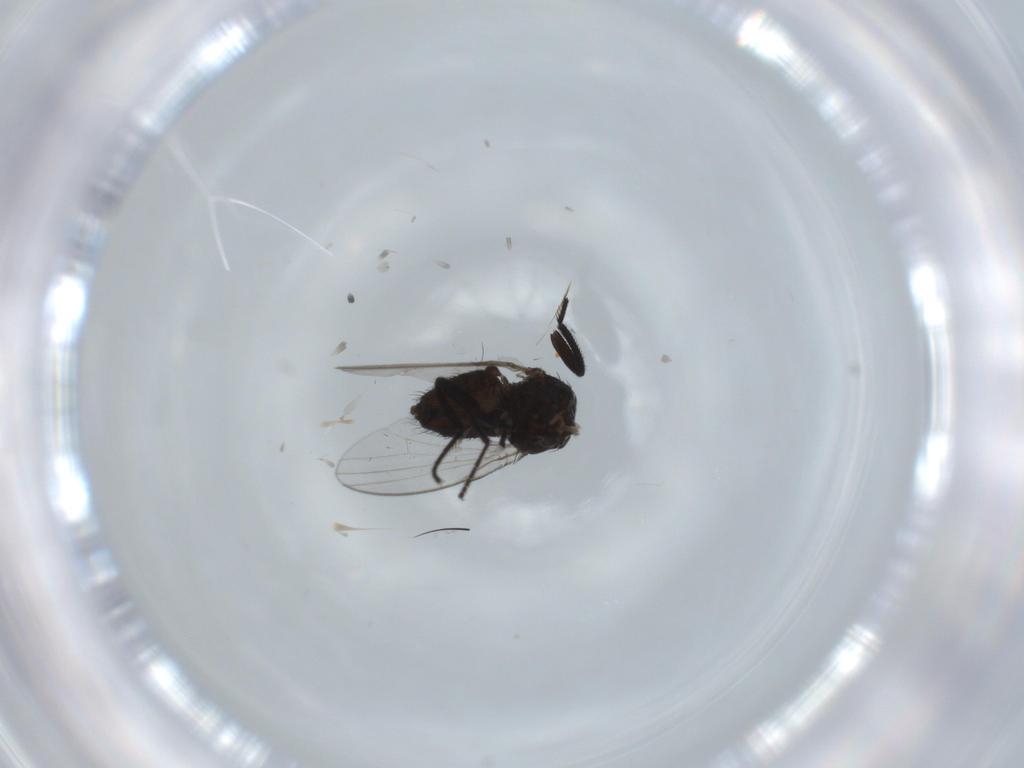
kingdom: Animalia
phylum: Arthropoda
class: Insecta
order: Diptera
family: Milichiidae
